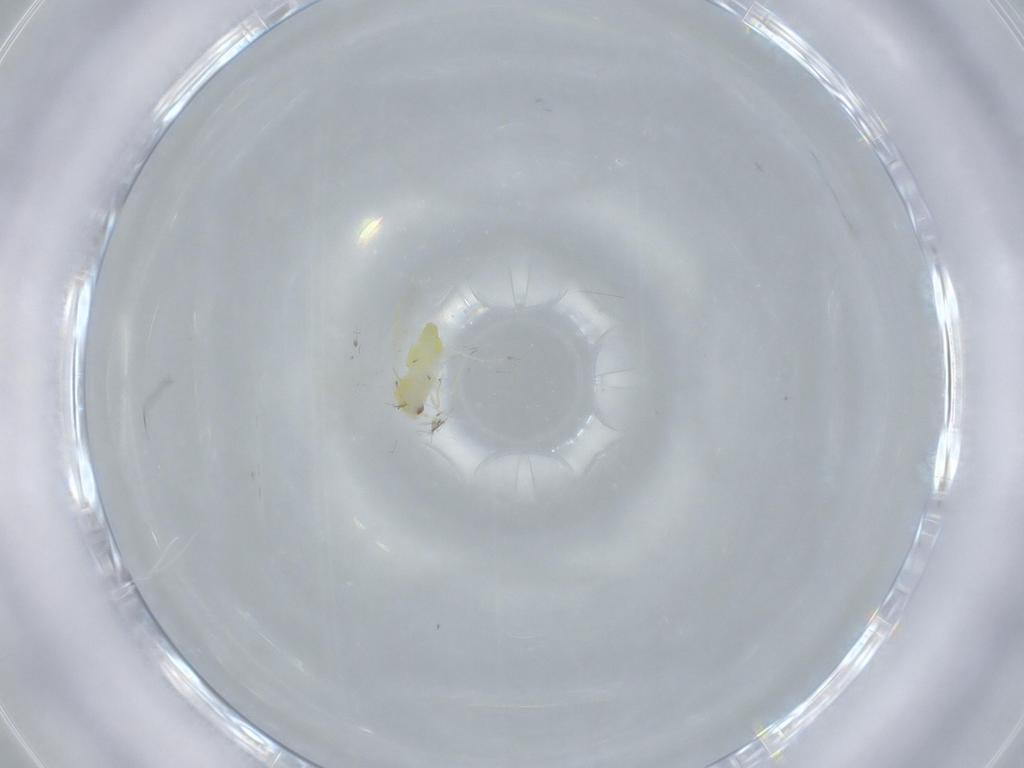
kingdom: Animalia
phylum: Arthropoda
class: Insecta
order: Hemiptera
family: Aleyrodidae
